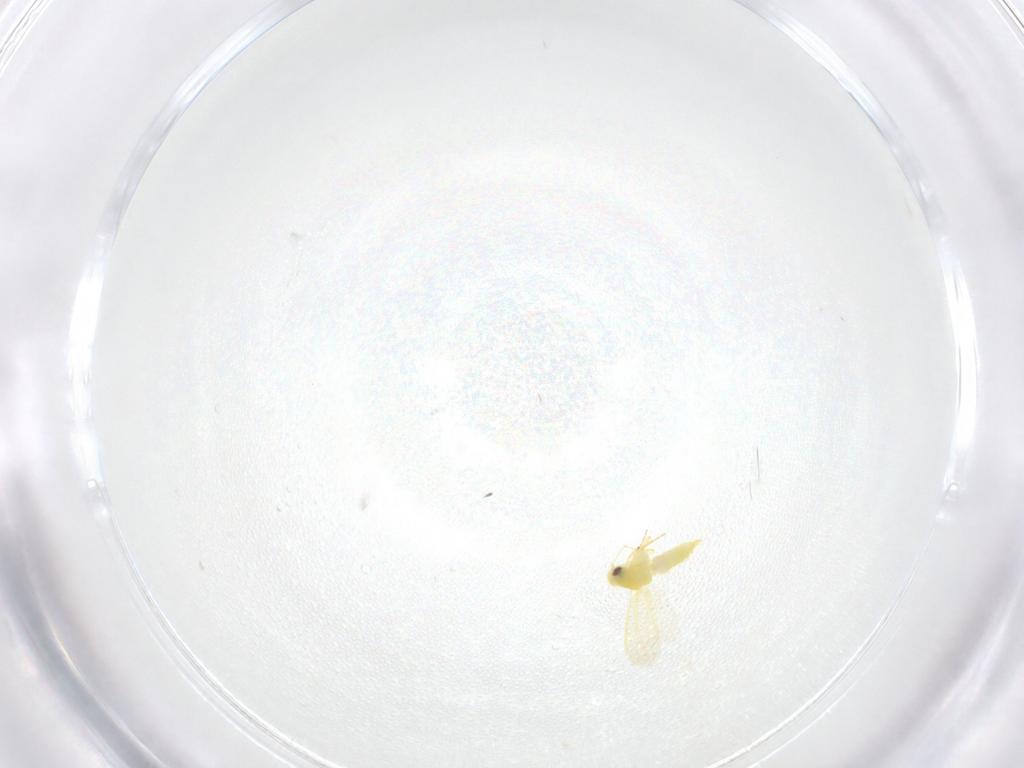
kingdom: Animalia
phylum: Arthropoda
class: Insecta
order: Hemiptera
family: Aleyrodidae
